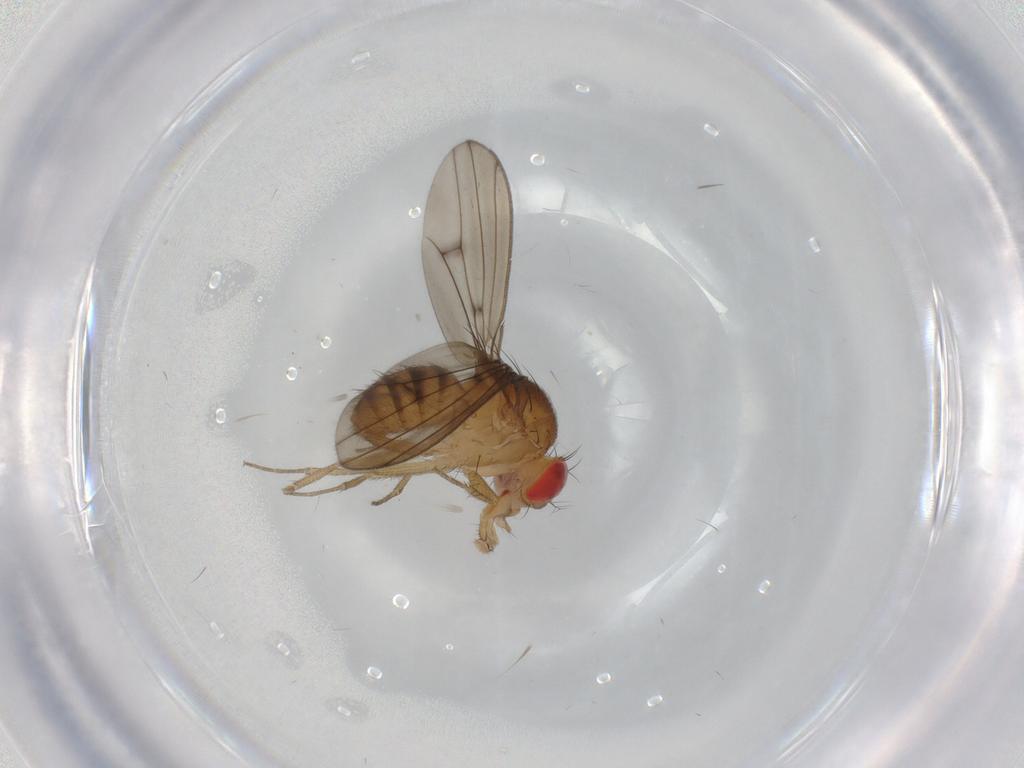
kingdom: Animalia
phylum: Arthropoda
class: Insecta
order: Diptera
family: Drosophilidae
